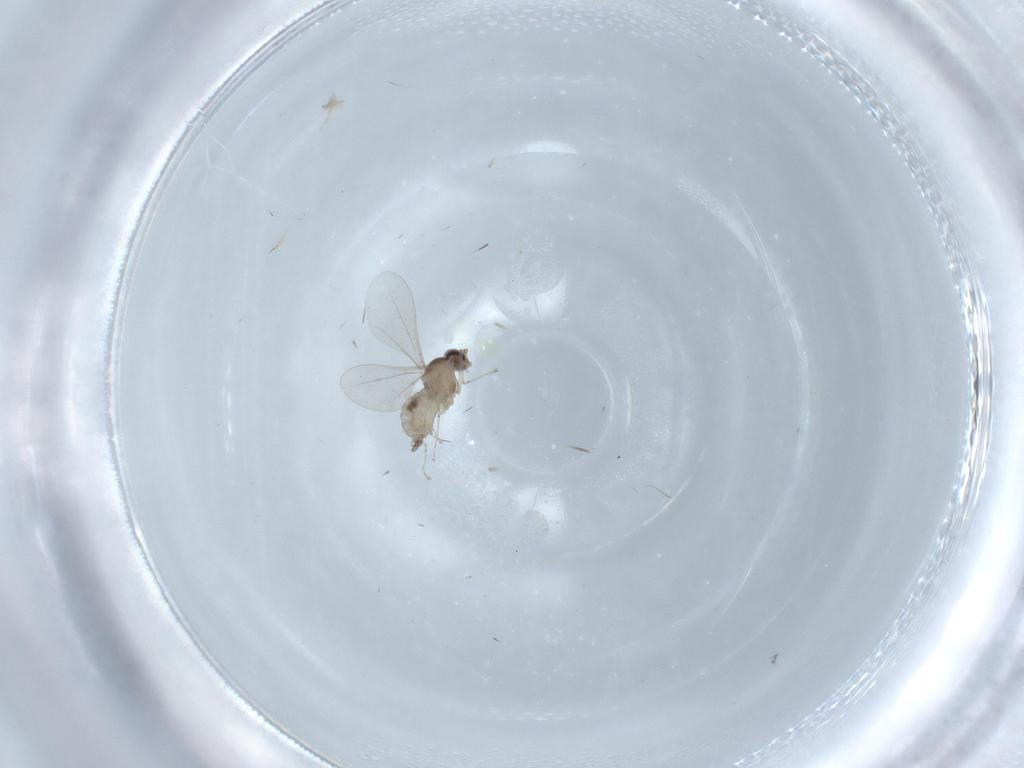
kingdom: Animalia
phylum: Arthropoda
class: Insecta
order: Diptera
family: Cecidomyiidae
